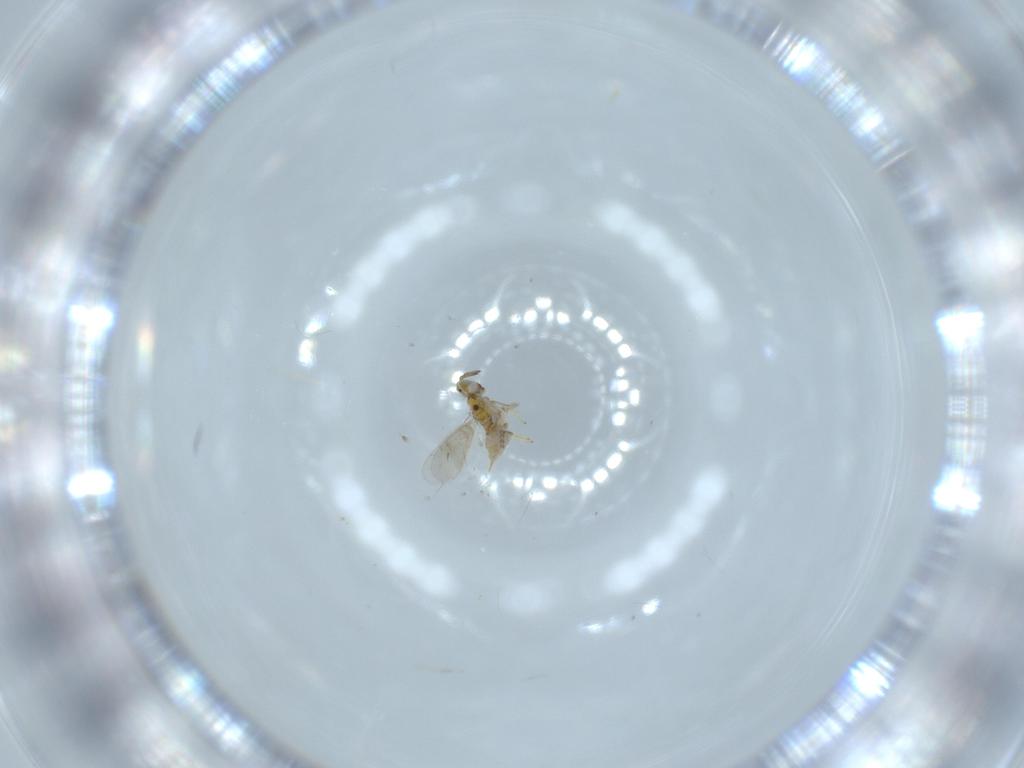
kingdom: Animalia
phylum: Arthropoda
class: Insecta
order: Hymenoptera
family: Aphelinidae
